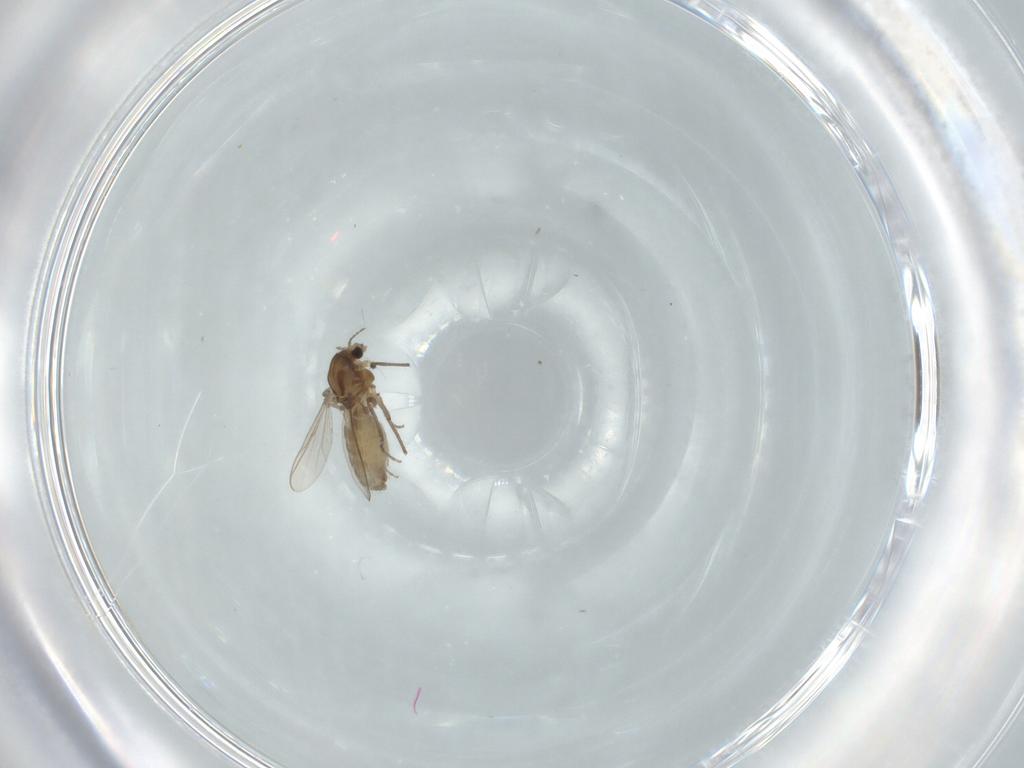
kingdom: Animalia
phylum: Arthropoda
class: Insecta
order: Diptera
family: Chironomidae
